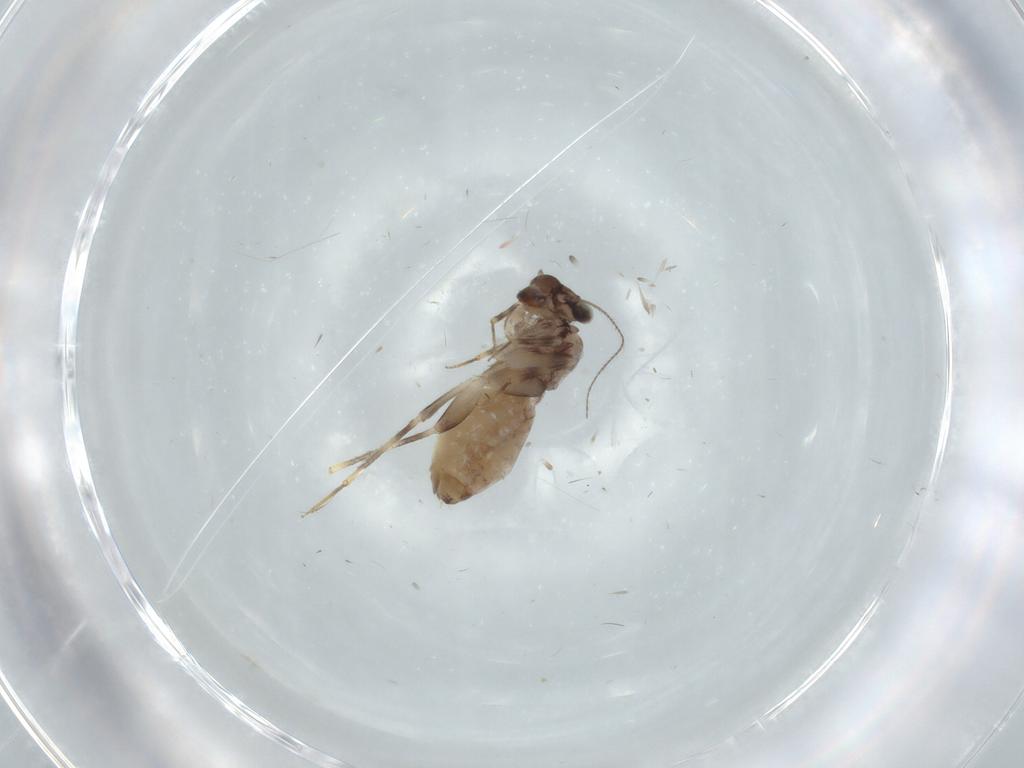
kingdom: Animalia
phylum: Arthropoda
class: Insecta
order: Psocodea
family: Lepidopsocidae
